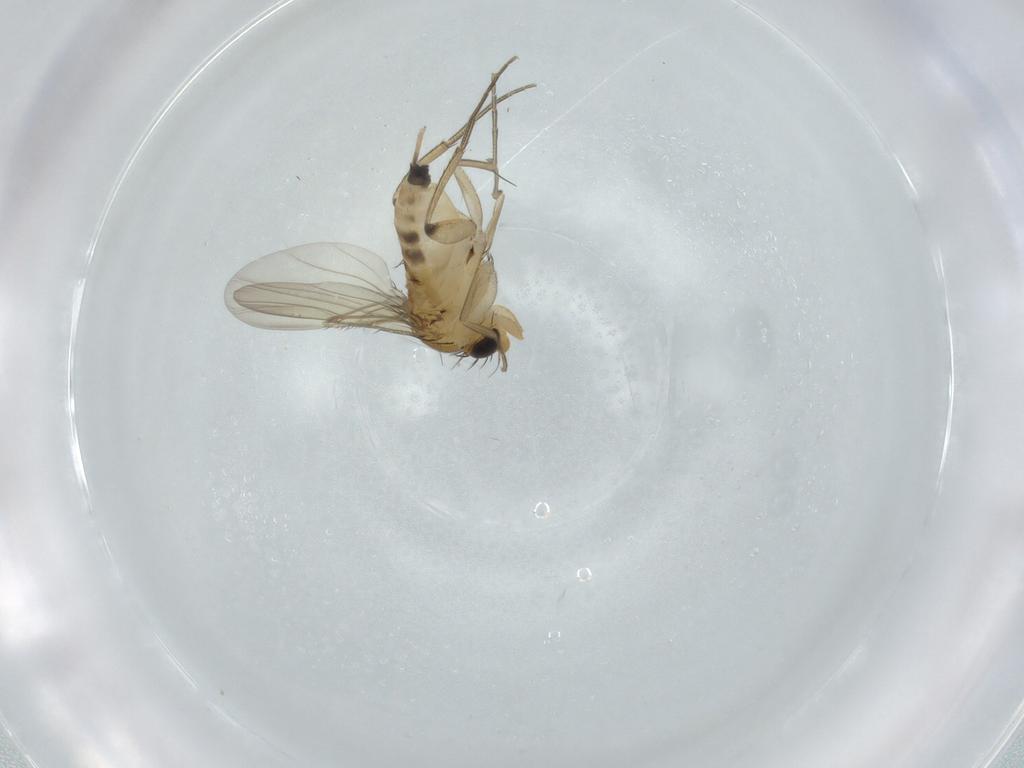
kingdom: Animalia
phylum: Arthropoda
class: Insecta
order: Diptera
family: Phoridae
